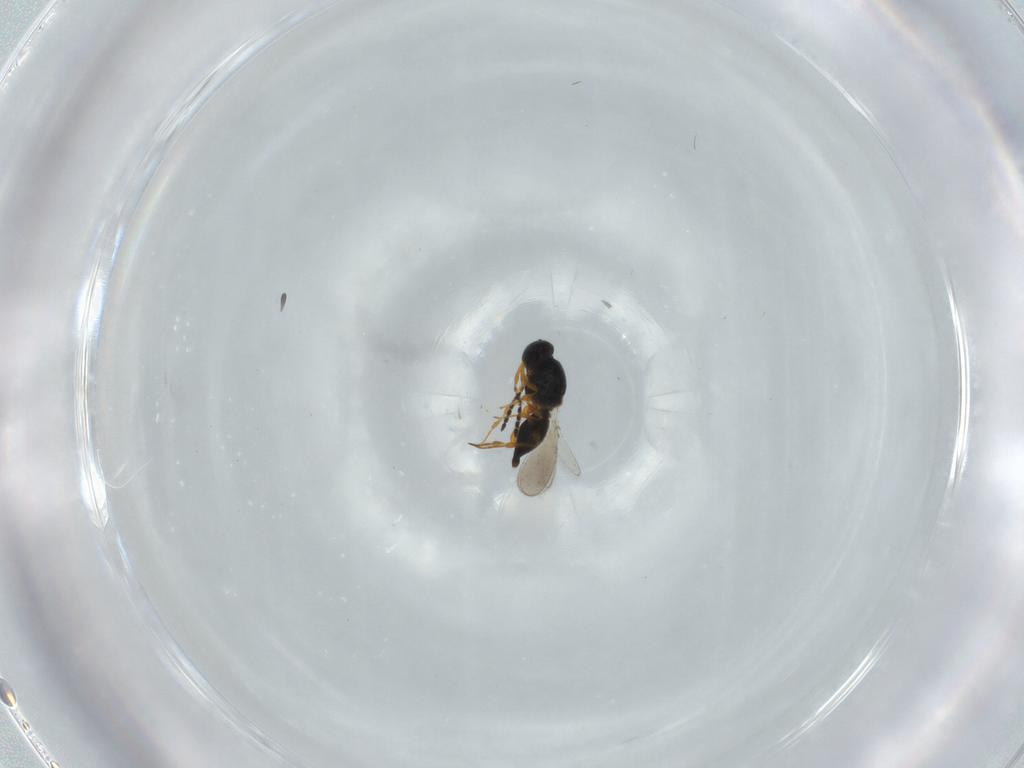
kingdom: Animalia
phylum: Arthropoda
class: Insecta
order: Hymenoptera
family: Platygastridae
